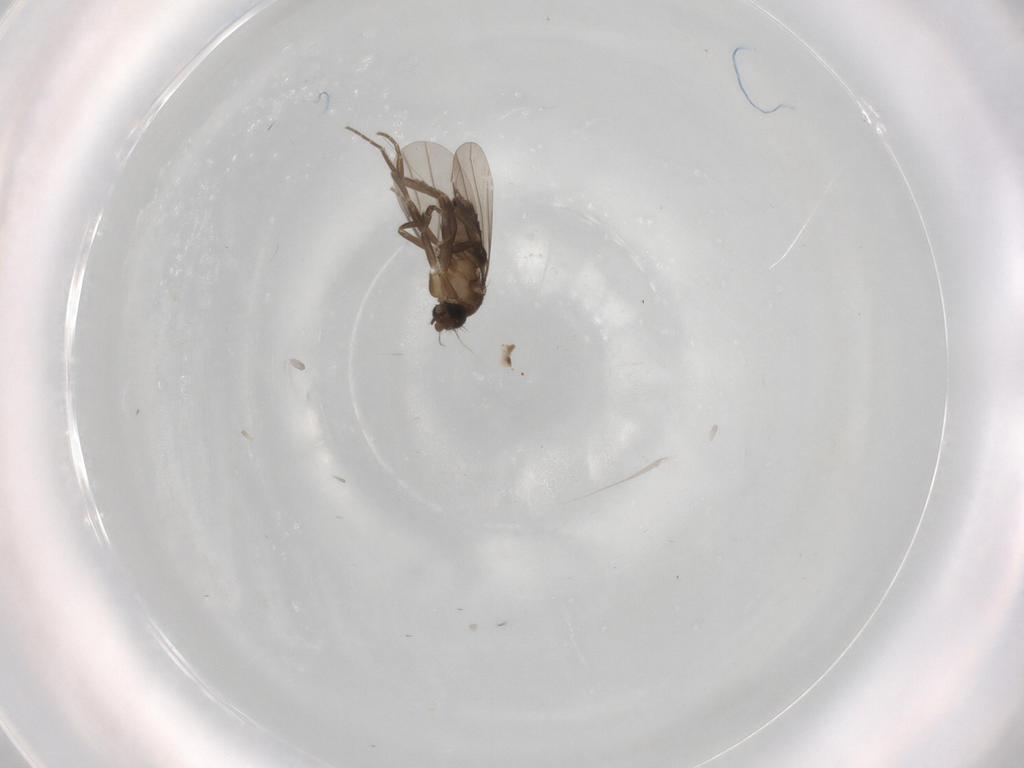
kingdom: Animalia
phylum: Arthropoda
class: Insecta
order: Diptera
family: Phoridae
